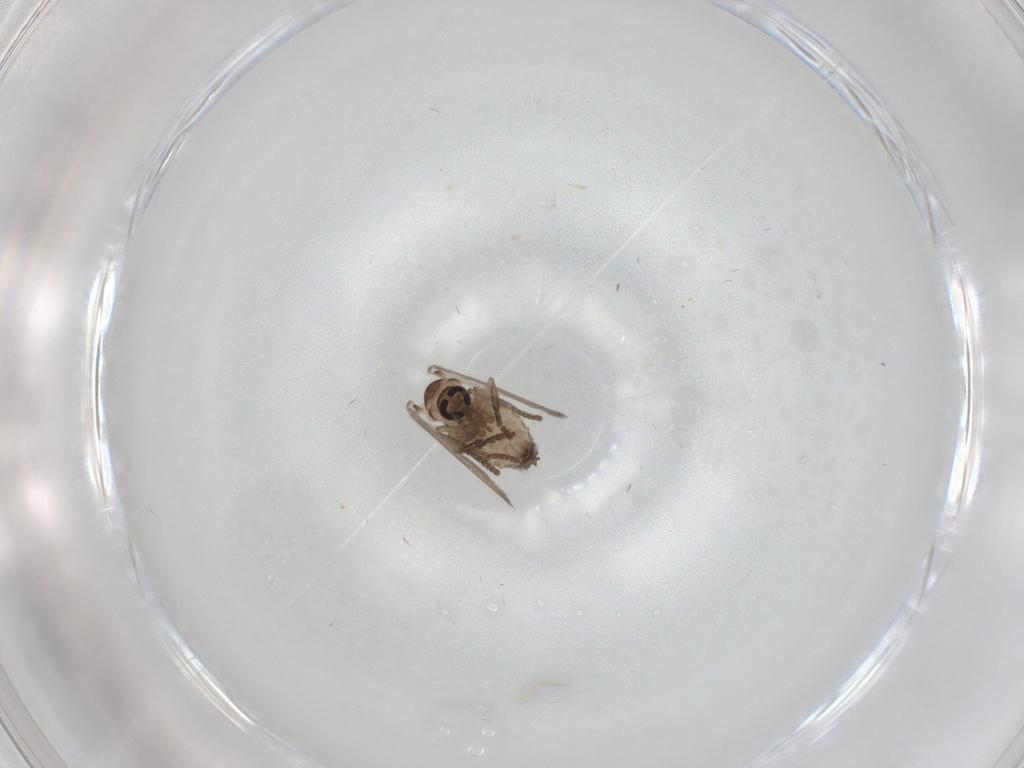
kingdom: Animalia
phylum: Arthropoda
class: Insecta
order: Diptera
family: Psychodidae
